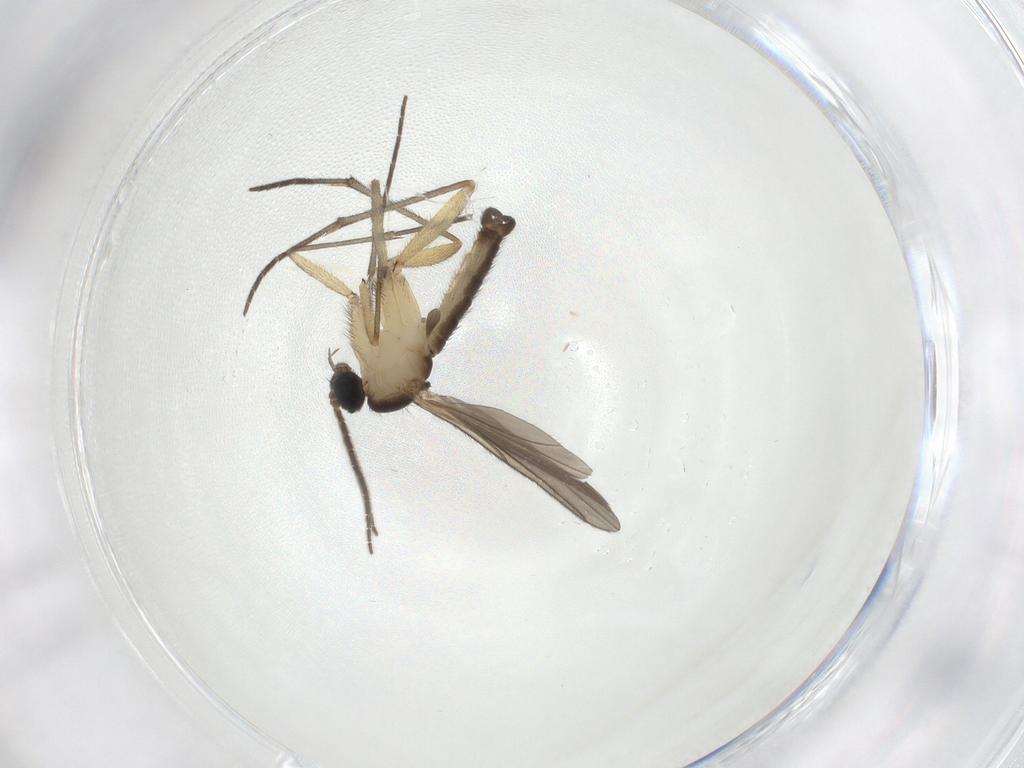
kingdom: Animalia
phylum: Arthropoda
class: Insecta
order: Diptera
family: Sciaridae
